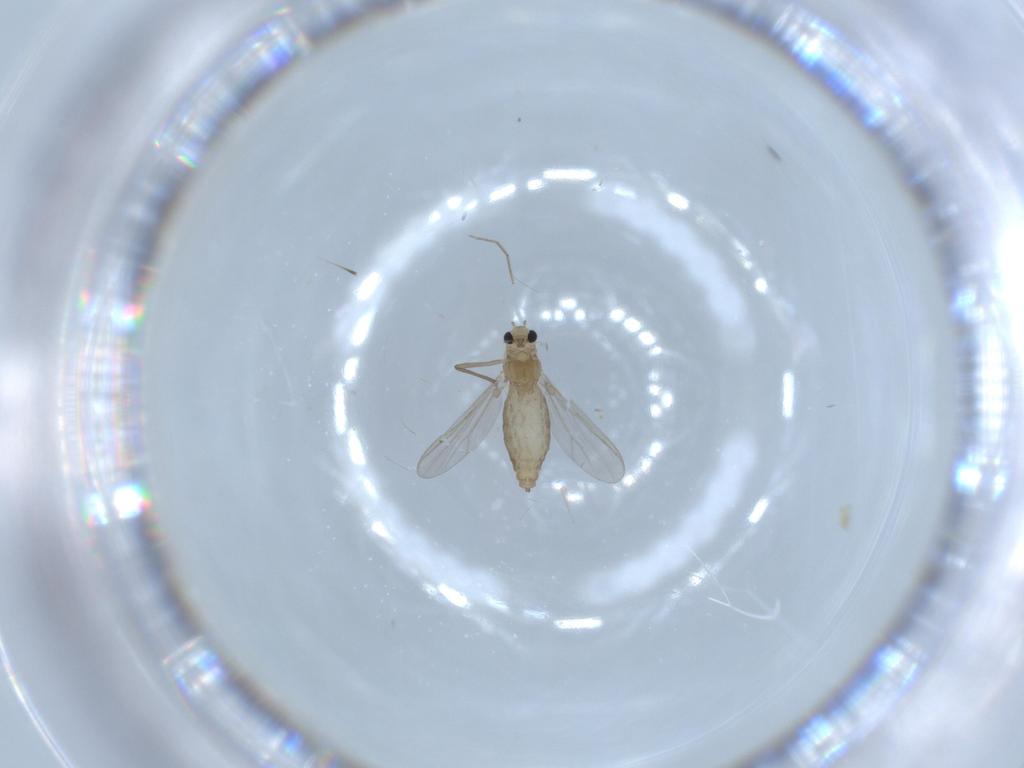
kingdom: Animalia
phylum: Arthropoda
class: Insecta
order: Diptera
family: Chironomidae
